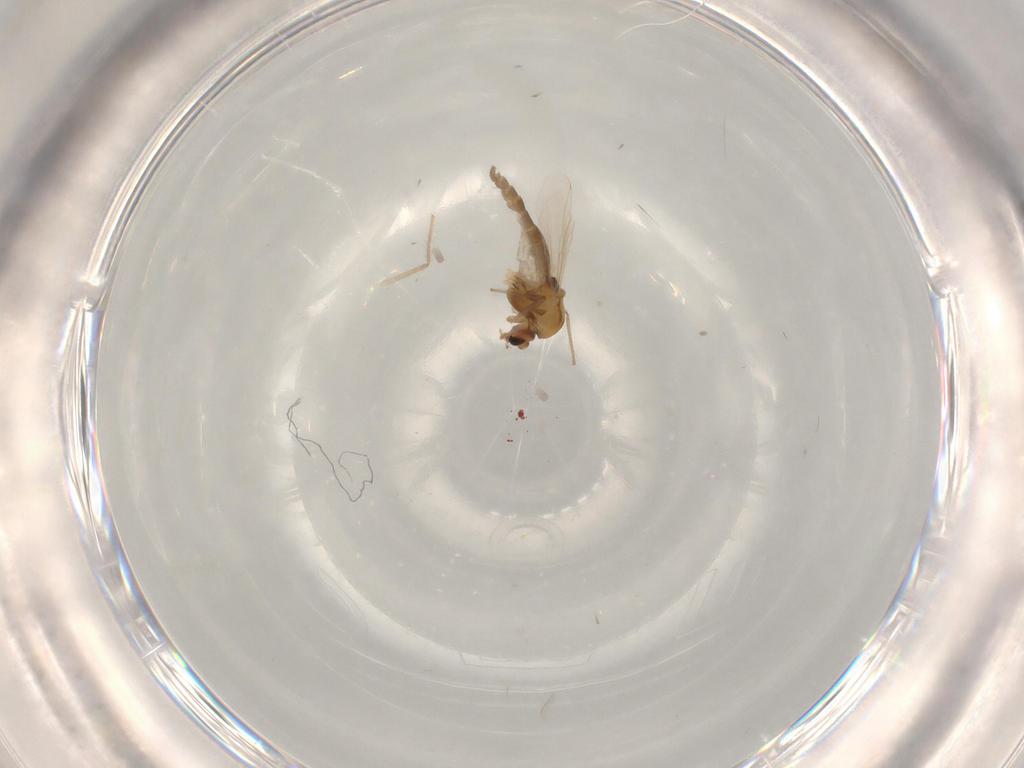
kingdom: Animalia
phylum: Arthropoda
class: Insecta
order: Diptera
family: Chironomidae
